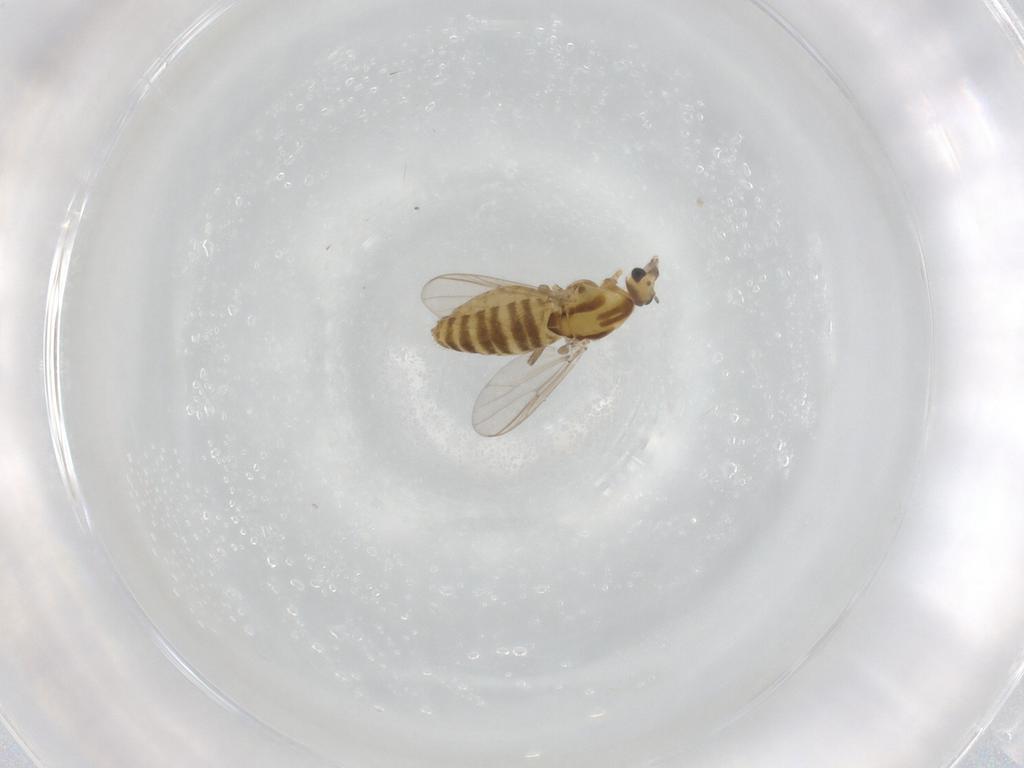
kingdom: Animalia
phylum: Arthropoda
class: Insecta
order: Diptera
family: Chironomidae
